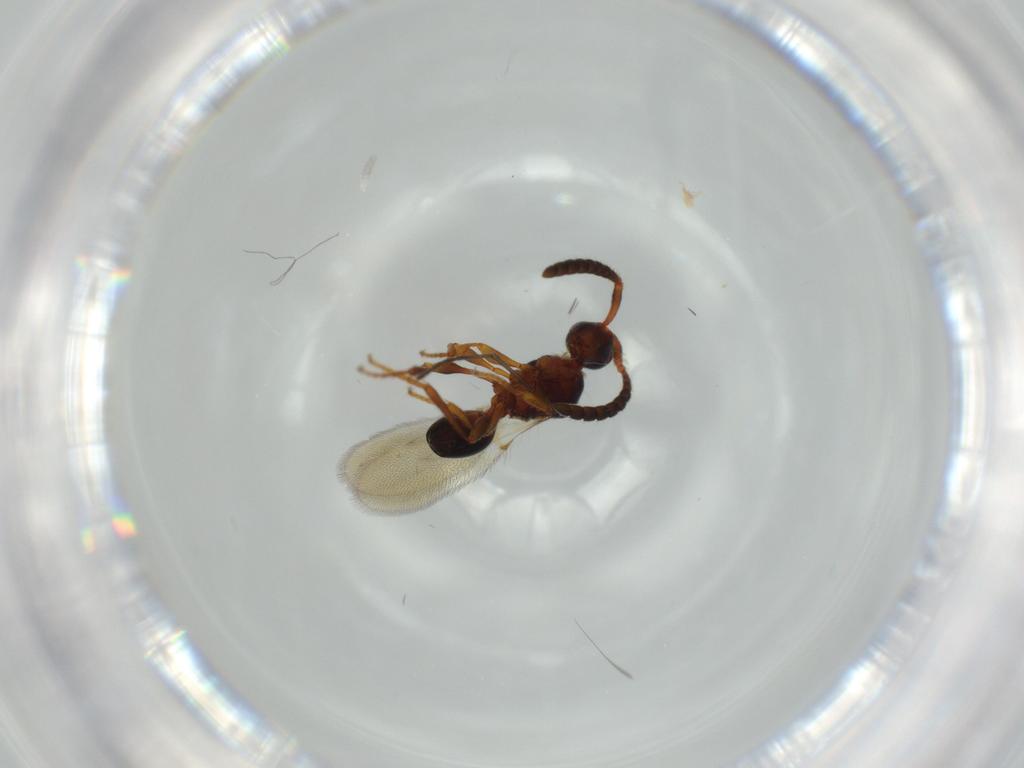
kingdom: Animalia
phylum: Arthropoda
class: Insecta
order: Hymenoptera
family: Diapriidae
